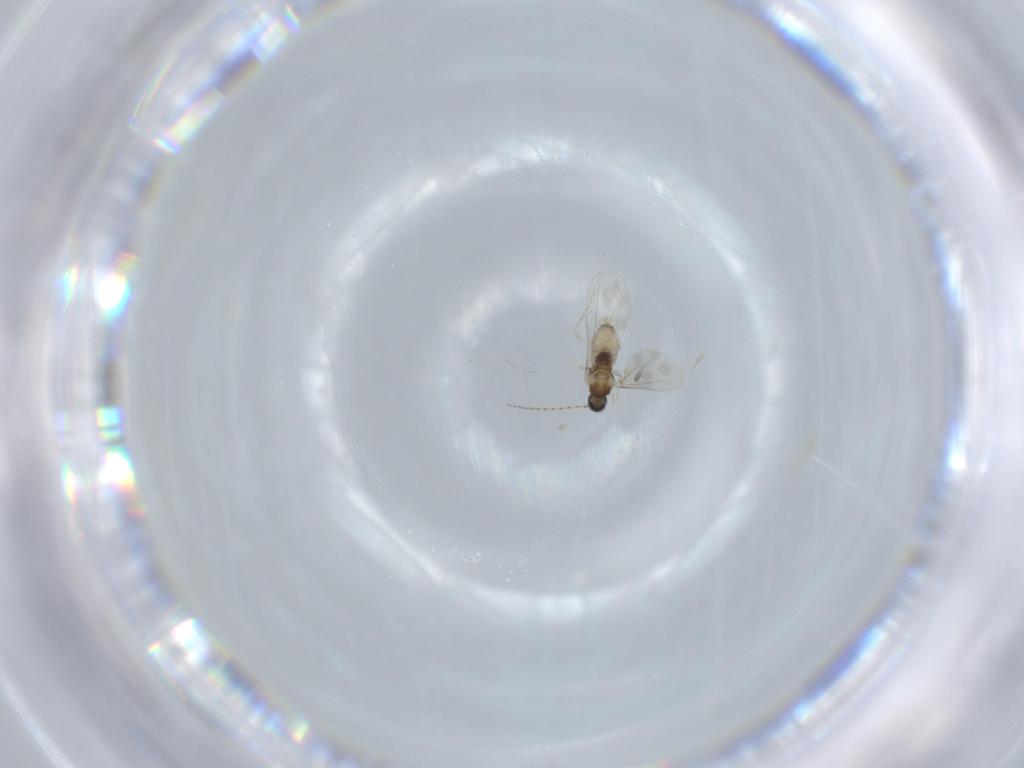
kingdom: Animalia
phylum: Arthropoda
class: Insecta
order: Diptera
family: Cecidomyiidae
